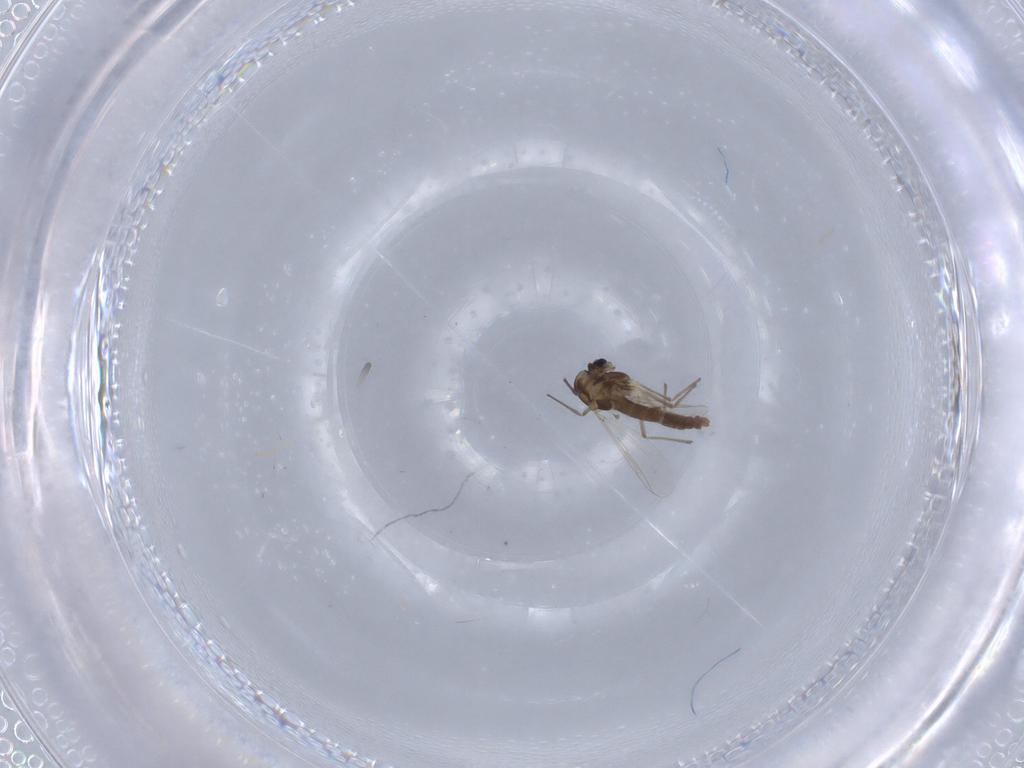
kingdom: Animalia
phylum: Arthropoda
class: Insecta
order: Diptera
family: Chironomidae
